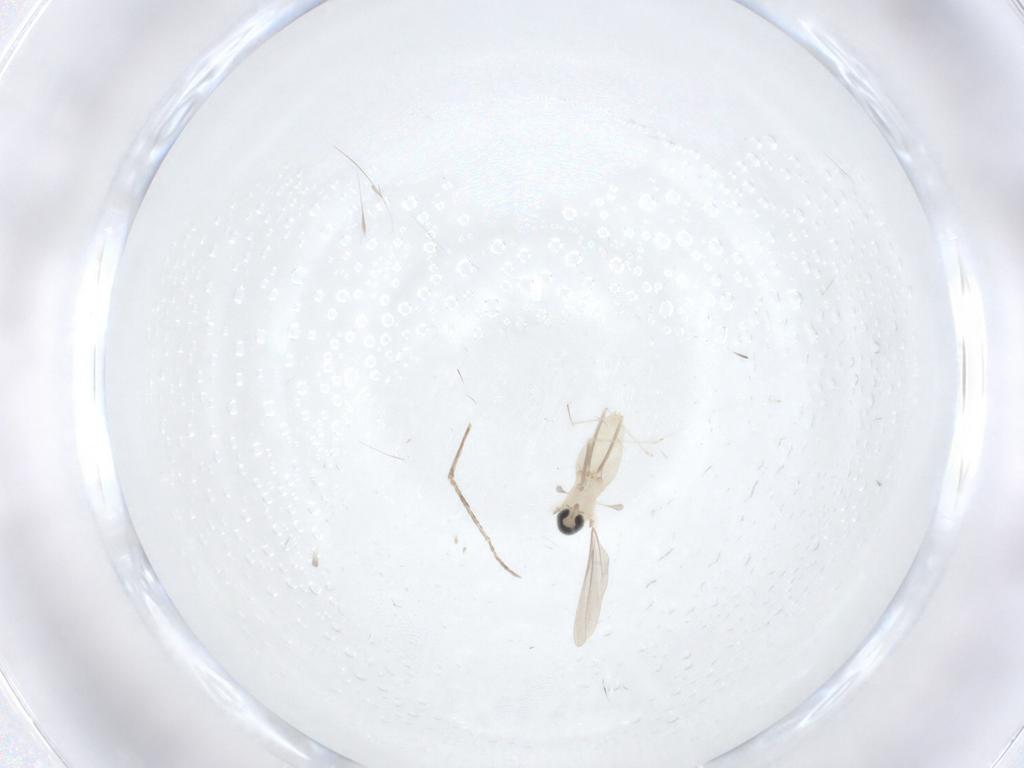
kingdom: Animalia
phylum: Arthropoda
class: Insecta
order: Diptera
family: Cecidomyiidae
